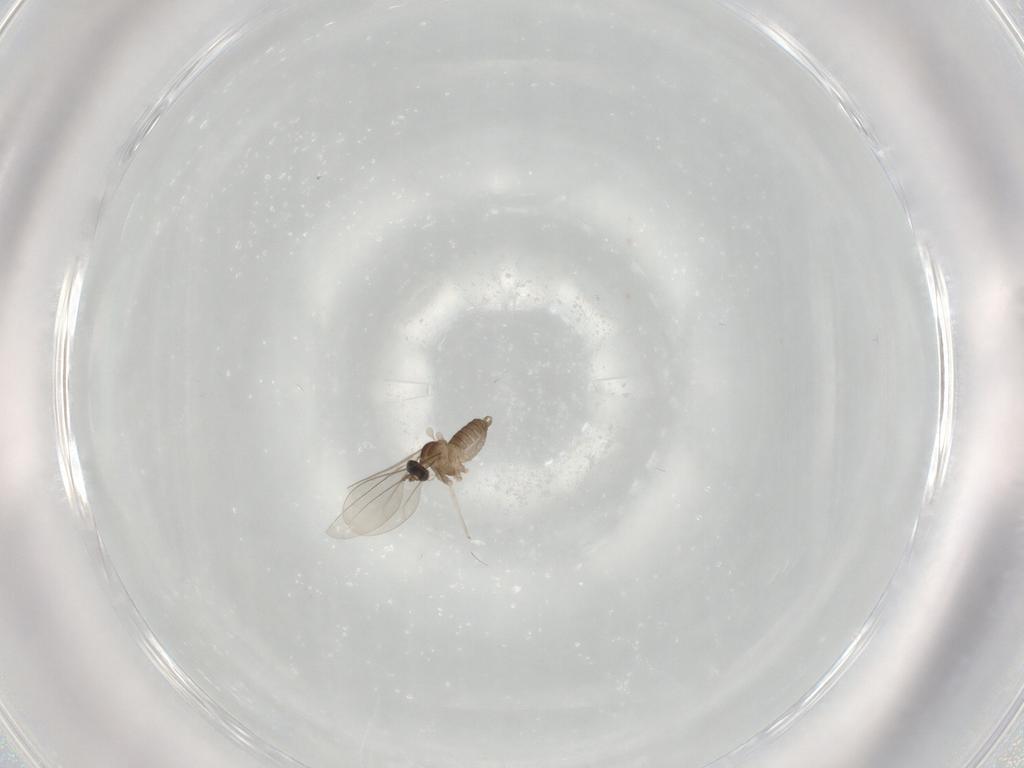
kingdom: Animalia
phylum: Arthropoda
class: Insecta
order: Diptera
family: Cecidomyiidae
